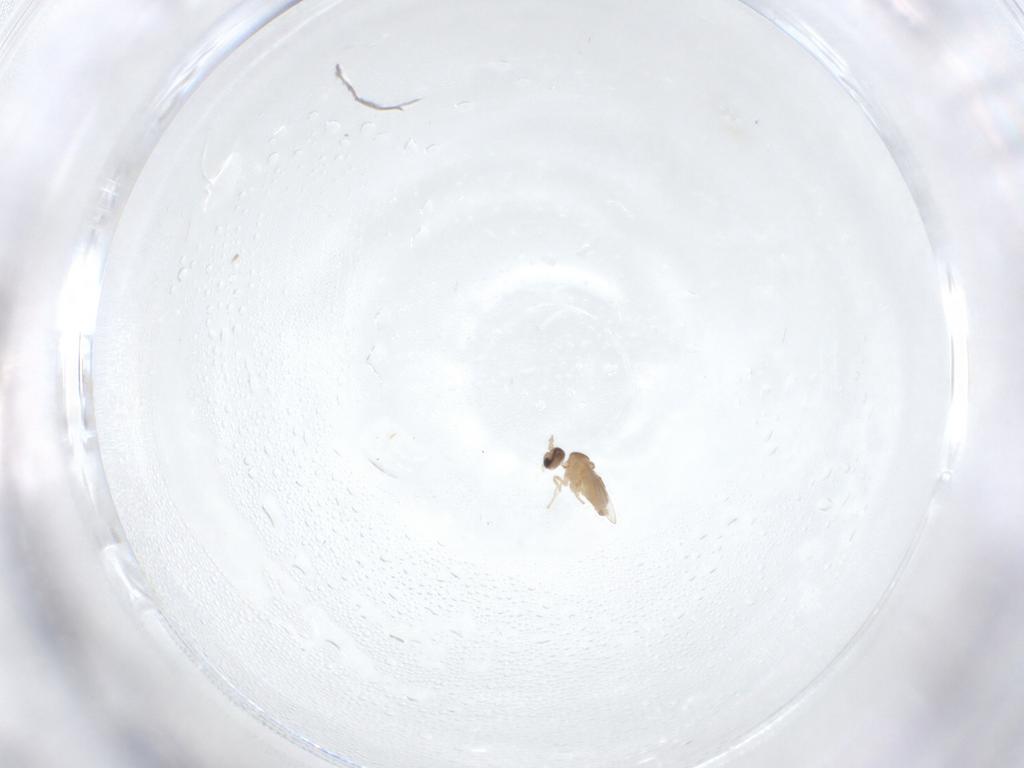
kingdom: Animalia
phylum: Arthropoda
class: Insecta
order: Diptera
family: Cecidomyiidae
